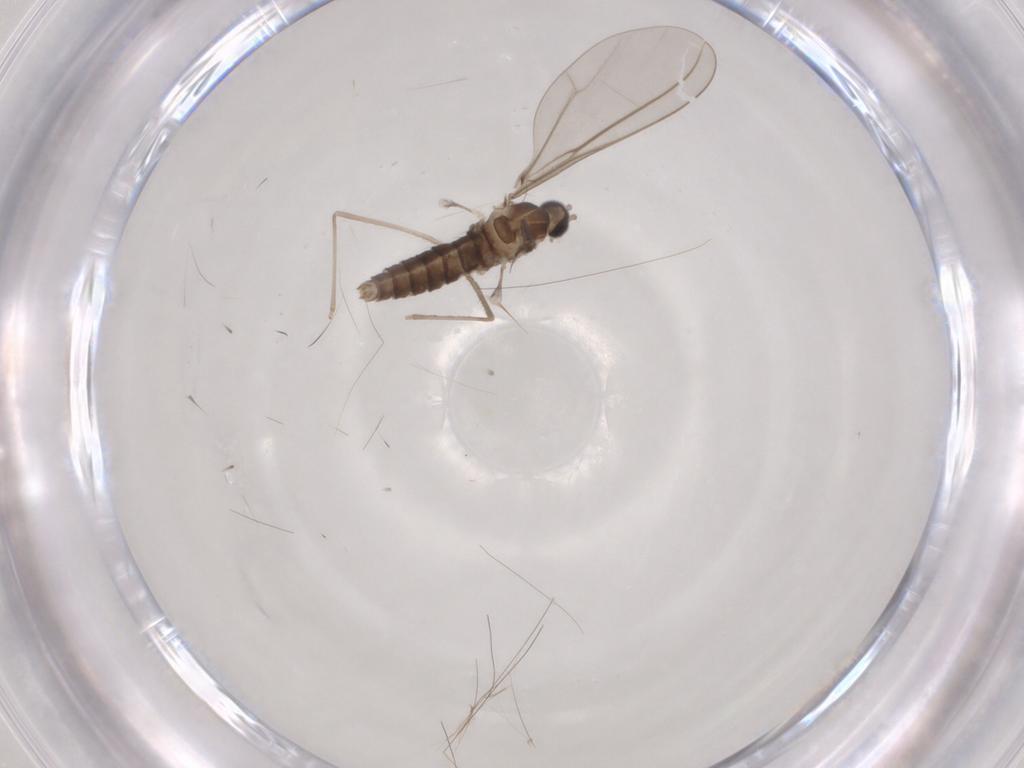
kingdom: Animalia
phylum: Arthropoda
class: Insecta
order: Diptera
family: Cecidomyiidae
